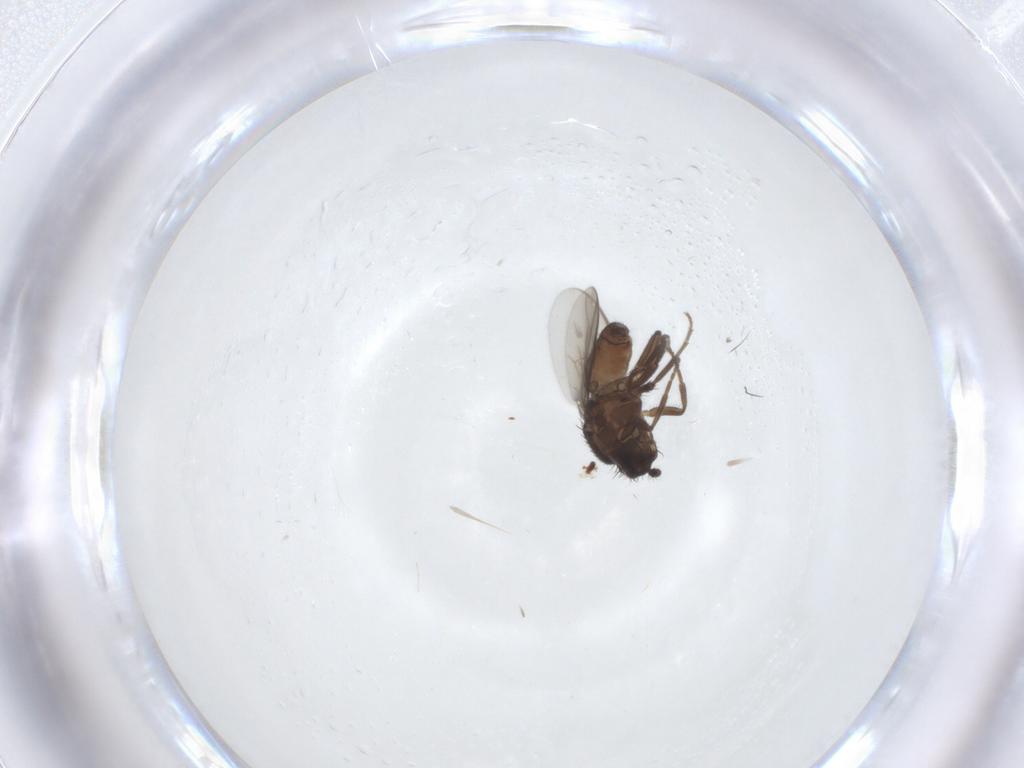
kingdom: Animalia
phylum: Arthropoda
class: Insecta
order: Diptera
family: Sphaeroceridae
